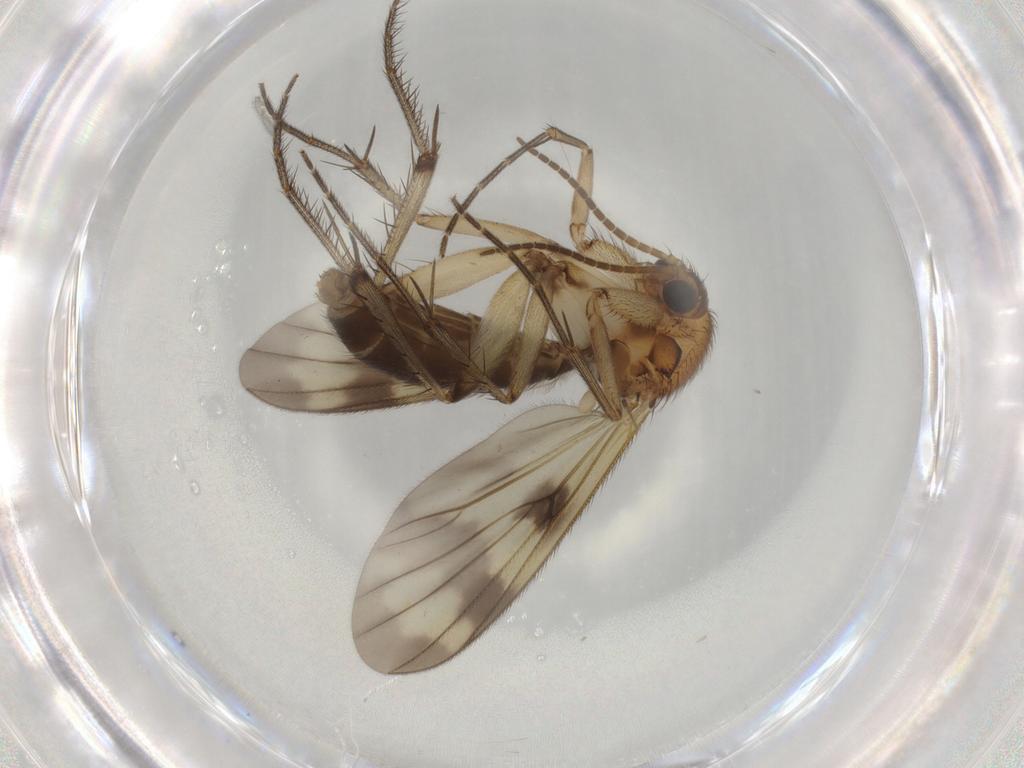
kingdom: Animalia
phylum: Arthropoda
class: Insecta
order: Diptera
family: Mycetophilidae
